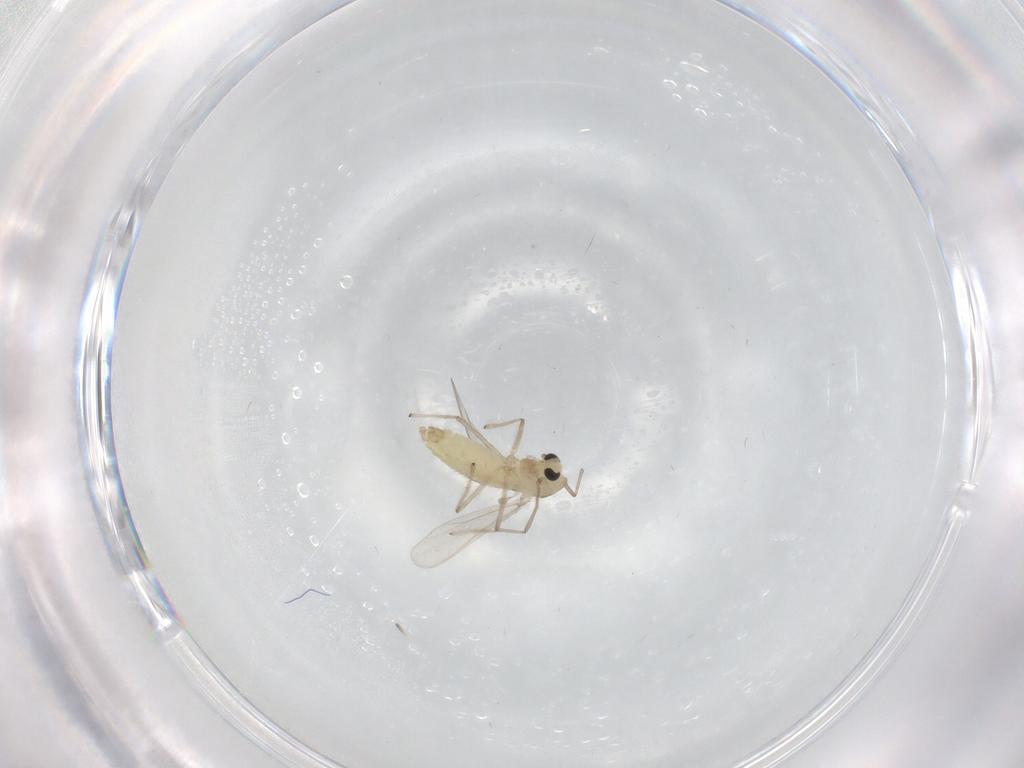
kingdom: Animalia
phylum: Arthropoda
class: Insecta
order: Diptera
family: Chironomidae
